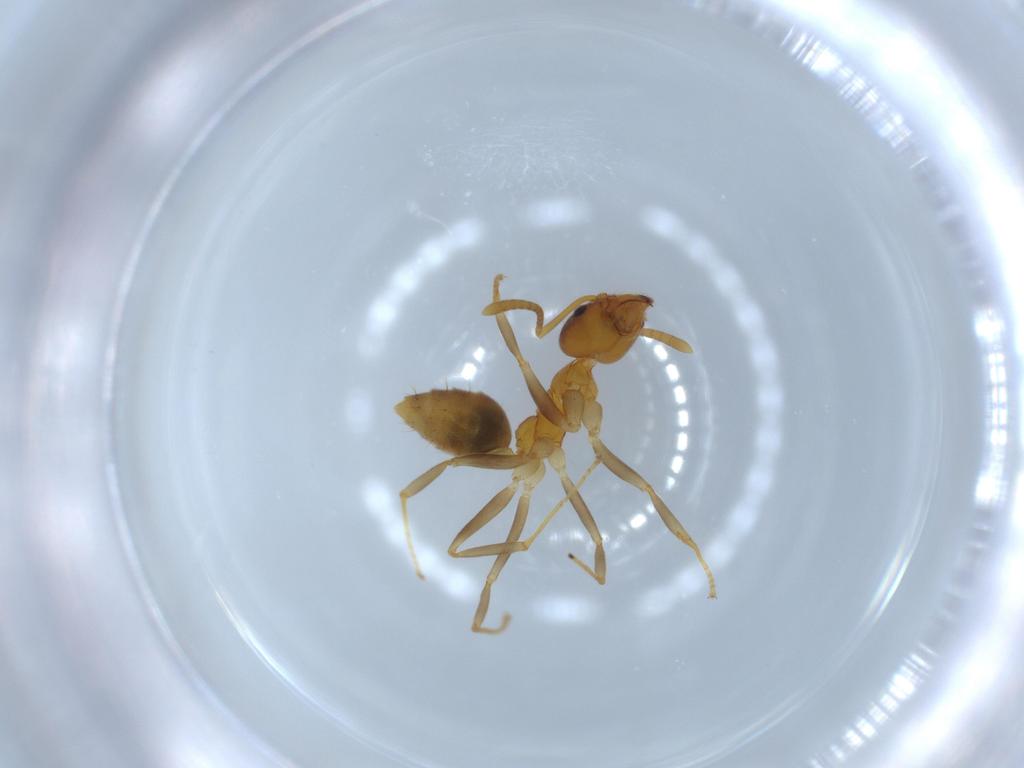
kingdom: Animalia
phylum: Arthropoda
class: Insecta
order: Hymenoptera
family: Formicidae
